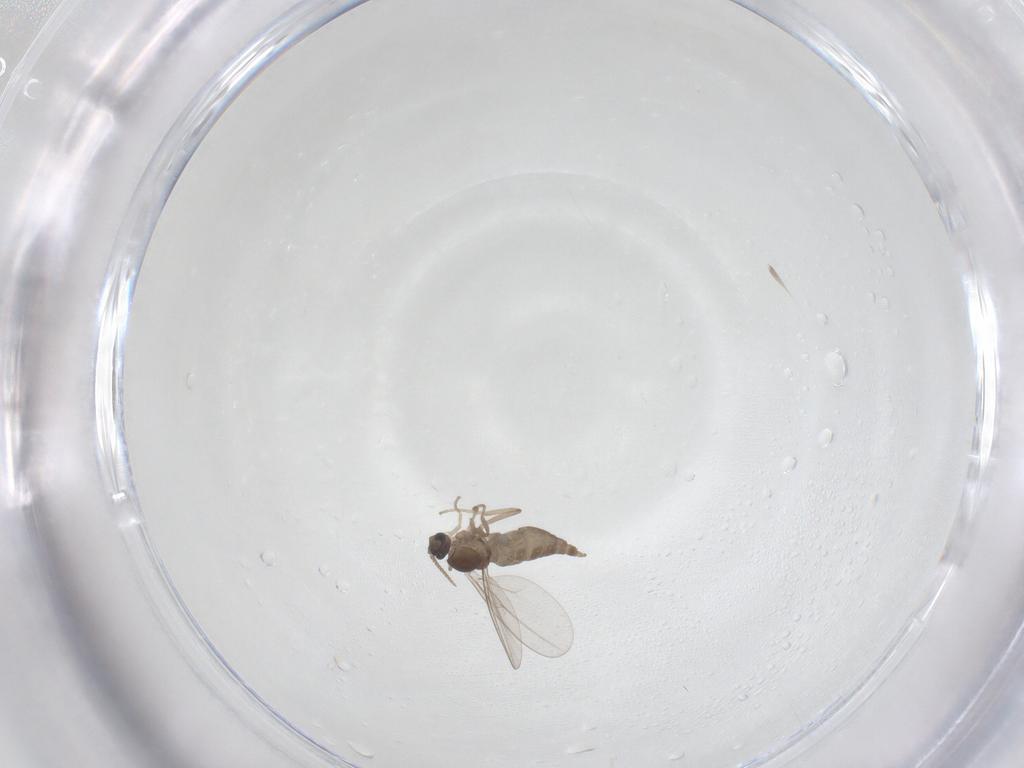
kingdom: Animalia
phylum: Arthropoda
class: Insecta
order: Diptera
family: Cecidomyiidae
